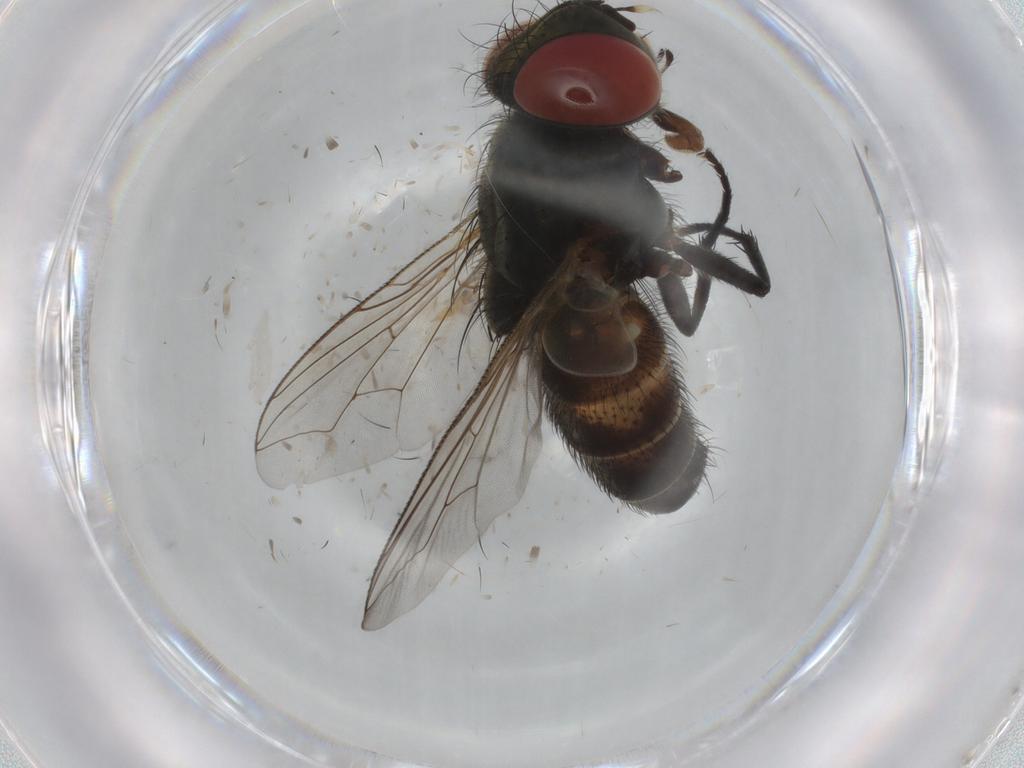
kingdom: Animalia
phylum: Arthropoda
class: Insecta
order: Diptera
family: Sarcophagidae
